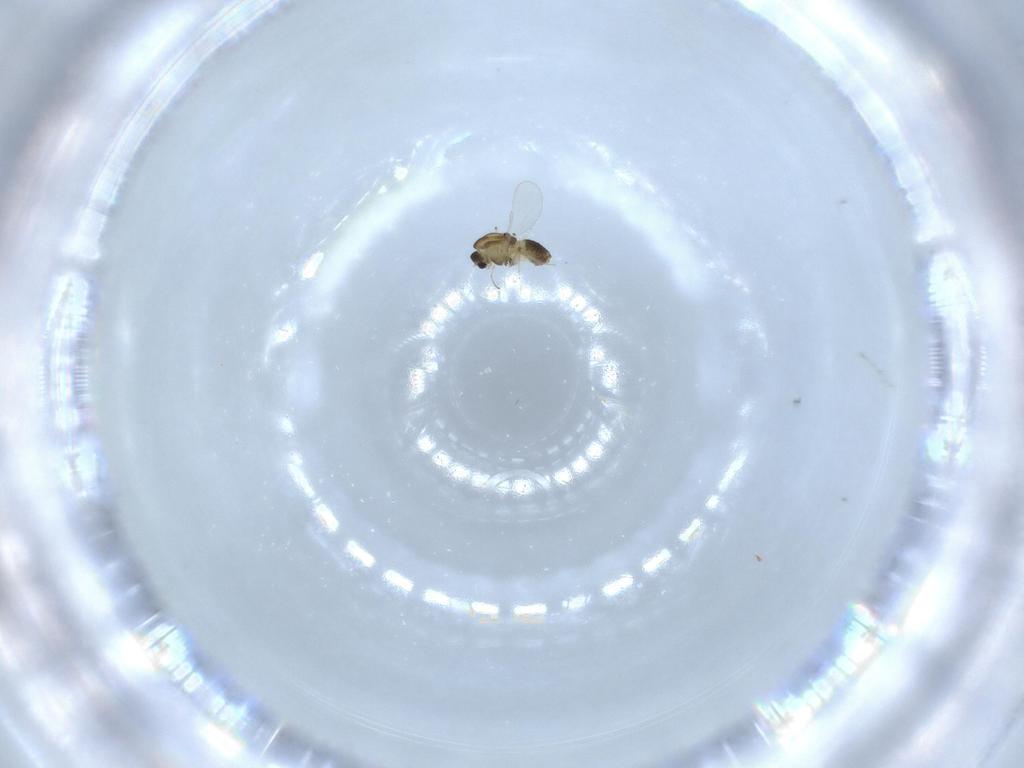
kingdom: Animalia
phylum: Arthropoda
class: Insecta
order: Diptera
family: Chironomidae
